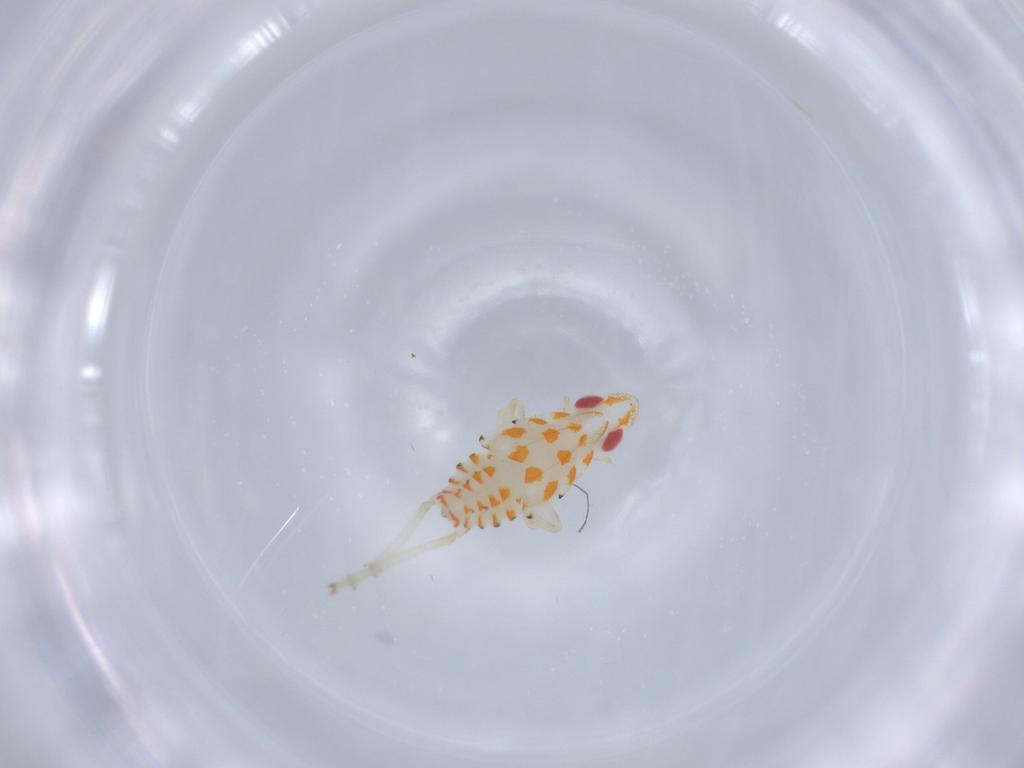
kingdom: Animalia
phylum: Arthropoda
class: Insecta
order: Hemiptera
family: Tropiduchidae
